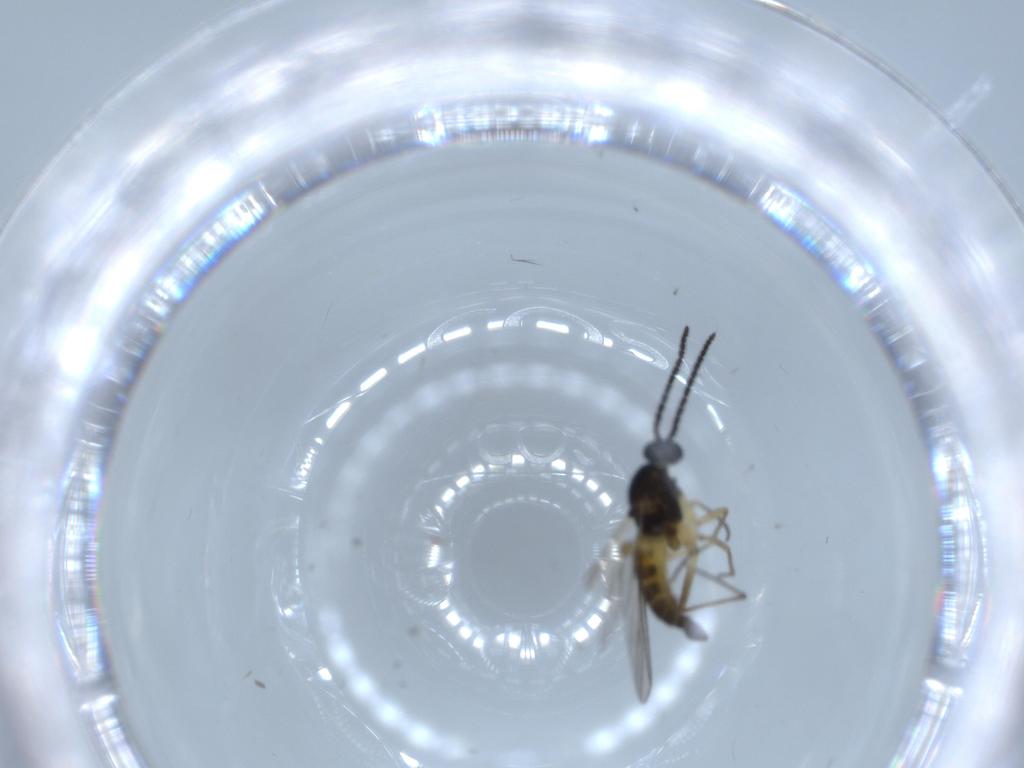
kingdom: Animalia
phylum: Arthropoda
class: Insecta
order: Diptera
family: Sciaridae
